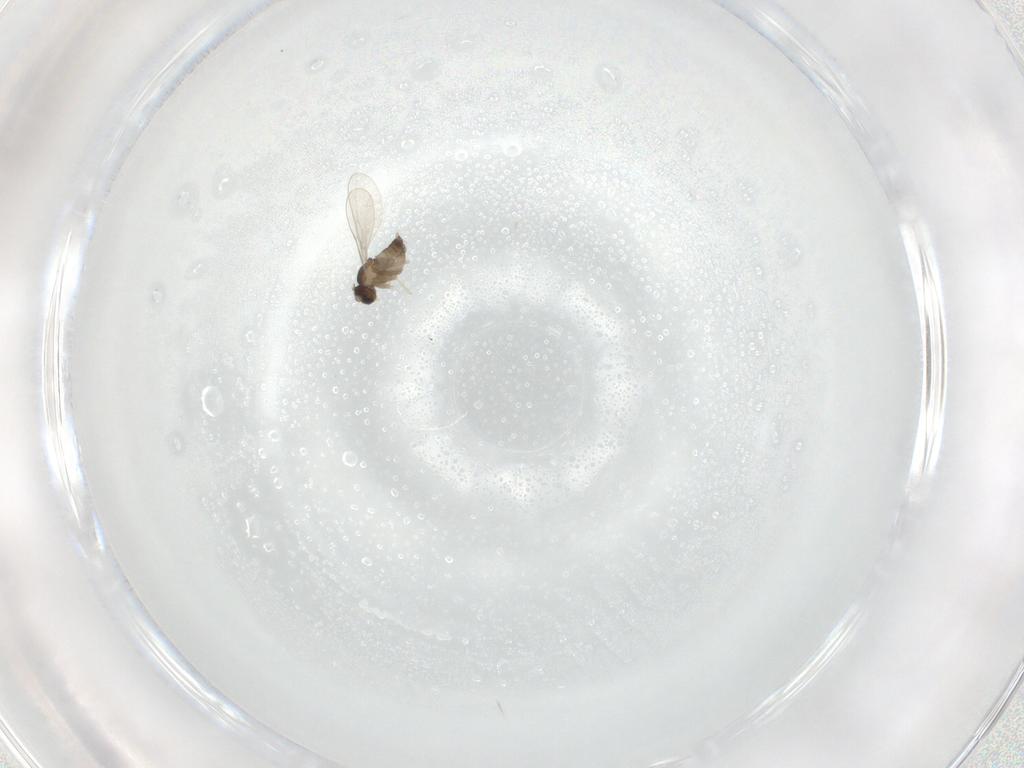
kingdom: Animalia
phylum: Arthropoda
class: Insecta
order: Diptera
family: Cecidomyiidae
